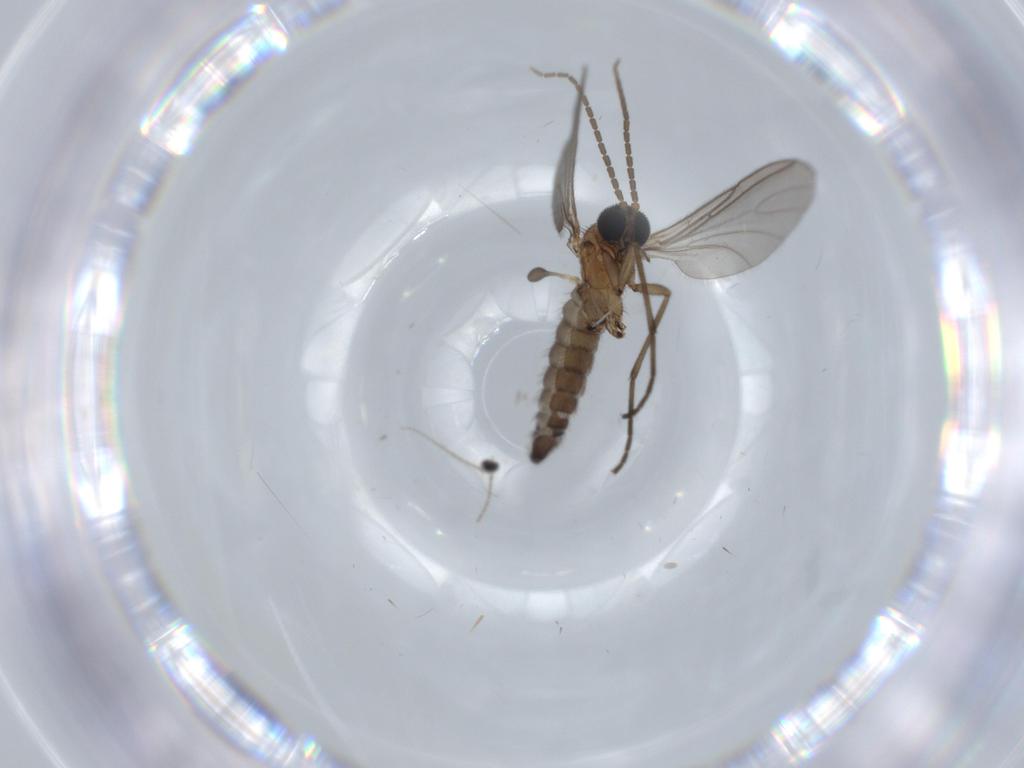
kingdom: Animalia
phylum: Arthropoda
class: Insecta
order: Diptera
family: Sciaridae
